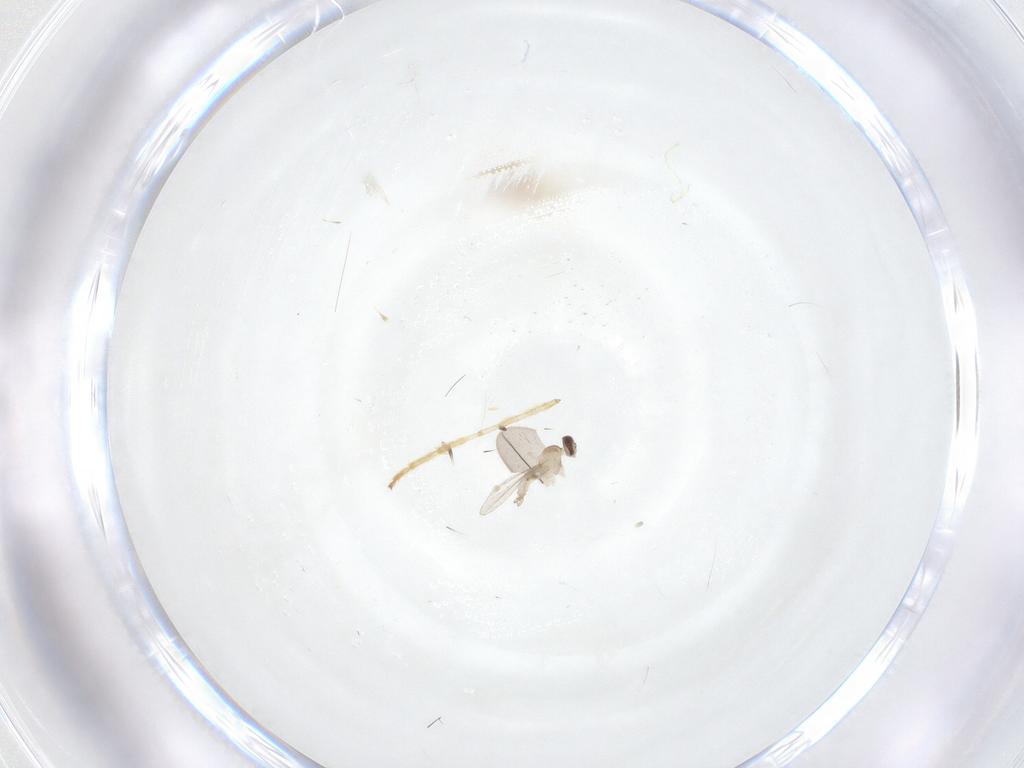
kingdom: Animalia
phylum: Arthropoda
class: Insecta
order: Diptera
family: Cecidomyiidae
